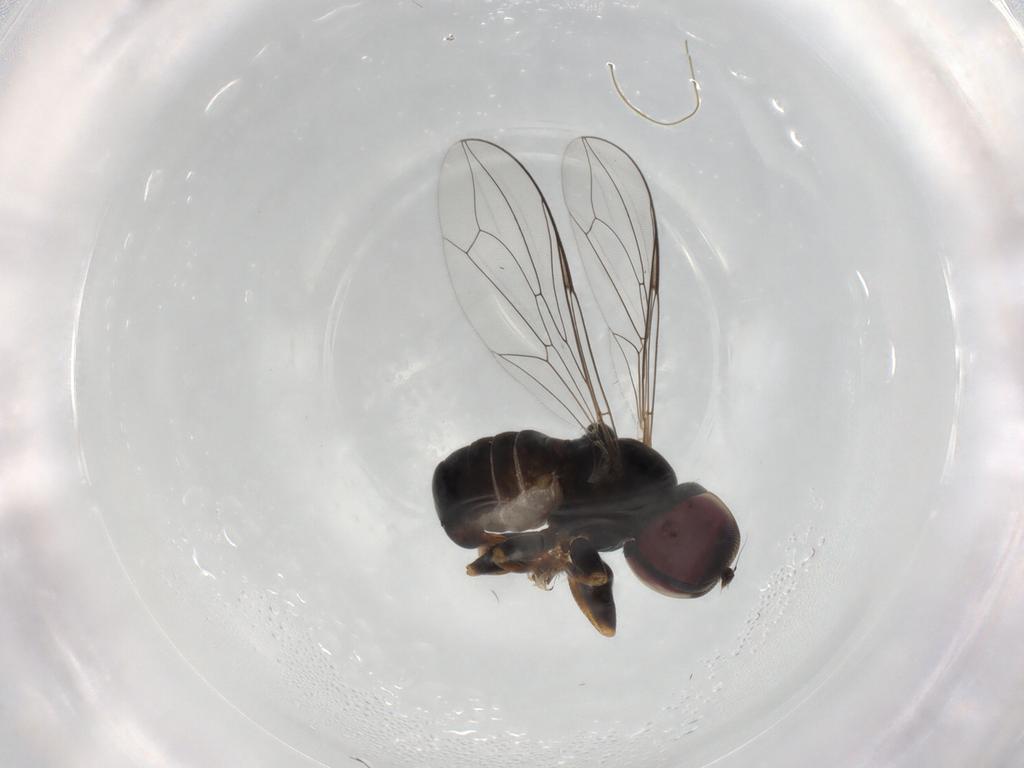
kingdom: Animalia
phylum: Arthropoda
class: Insecta
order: Diptera
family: Pipunculidae
